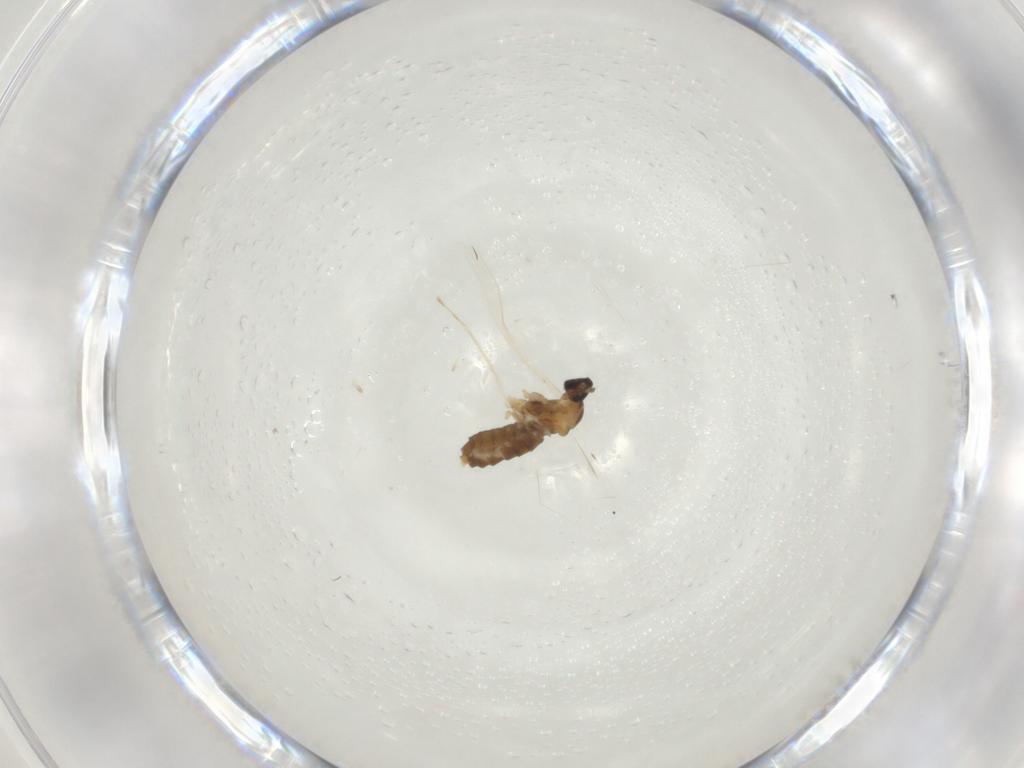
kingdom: Animalia
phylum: Arthropoda
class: Insecta
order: Diptera
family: Cecidomyiidae
